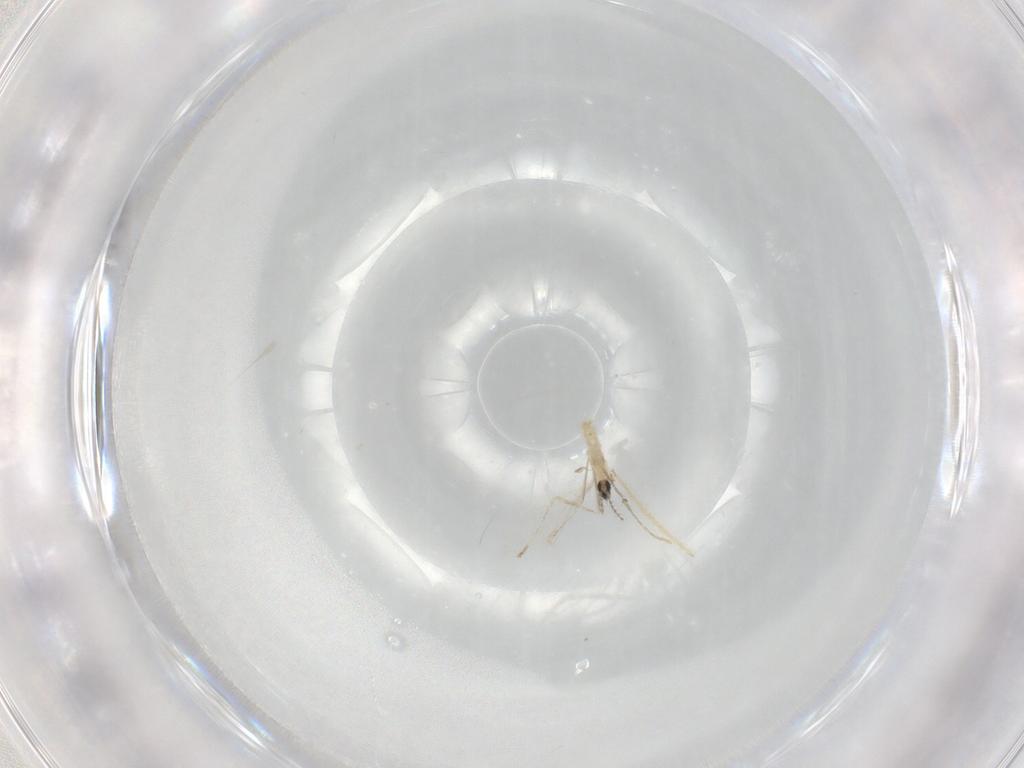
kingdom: Animalia
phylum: Arthropoda
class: Insecta
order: Diptera
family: Cecidomyiidae
